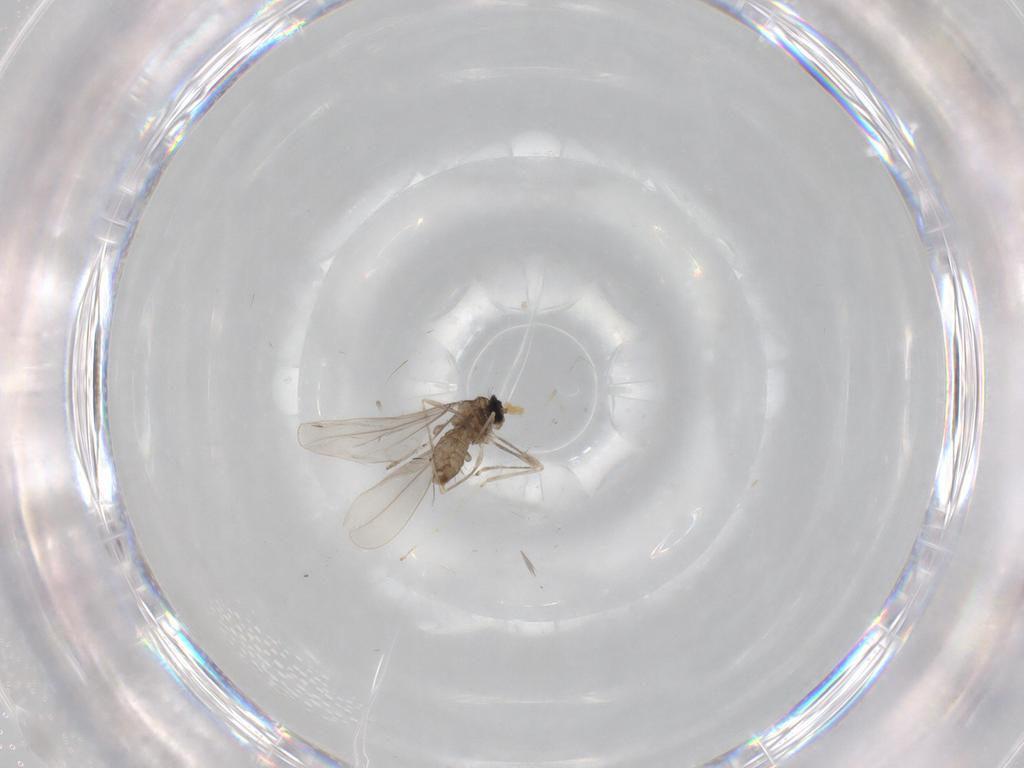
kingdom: Animalia
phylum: Arthropoda
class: Insecta
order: Diptera
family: Cecidomyiidae
